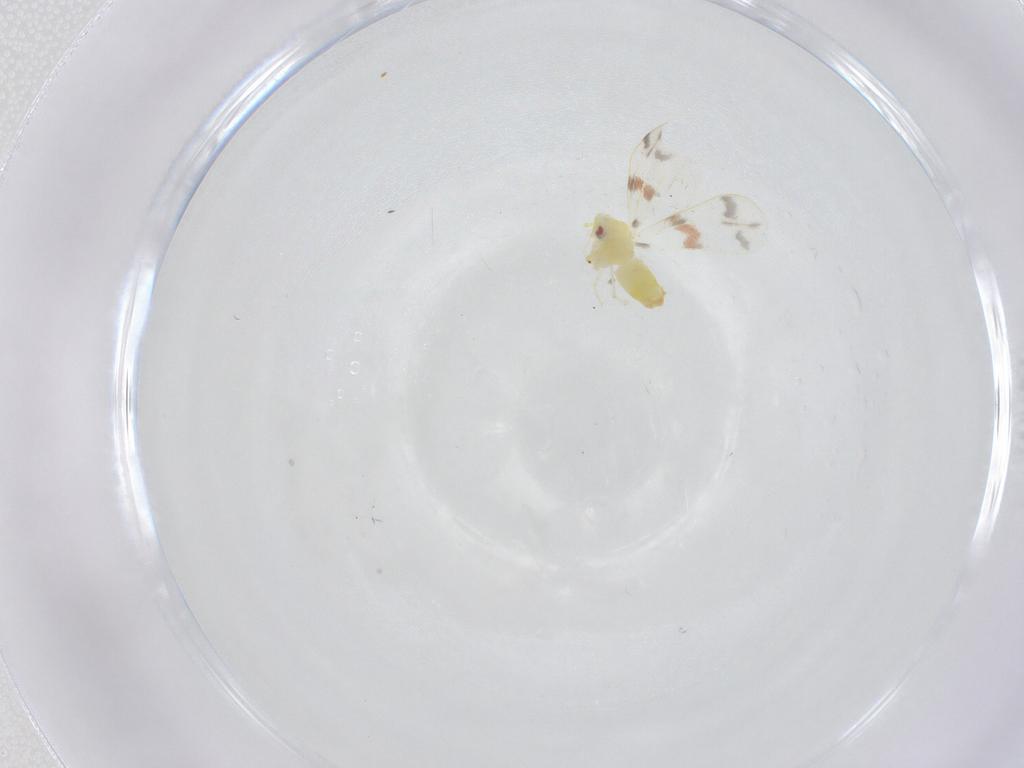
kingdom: Animalia
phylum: Arthropoda
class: Insecta
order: Hemiptera
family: Aleyrodidae
